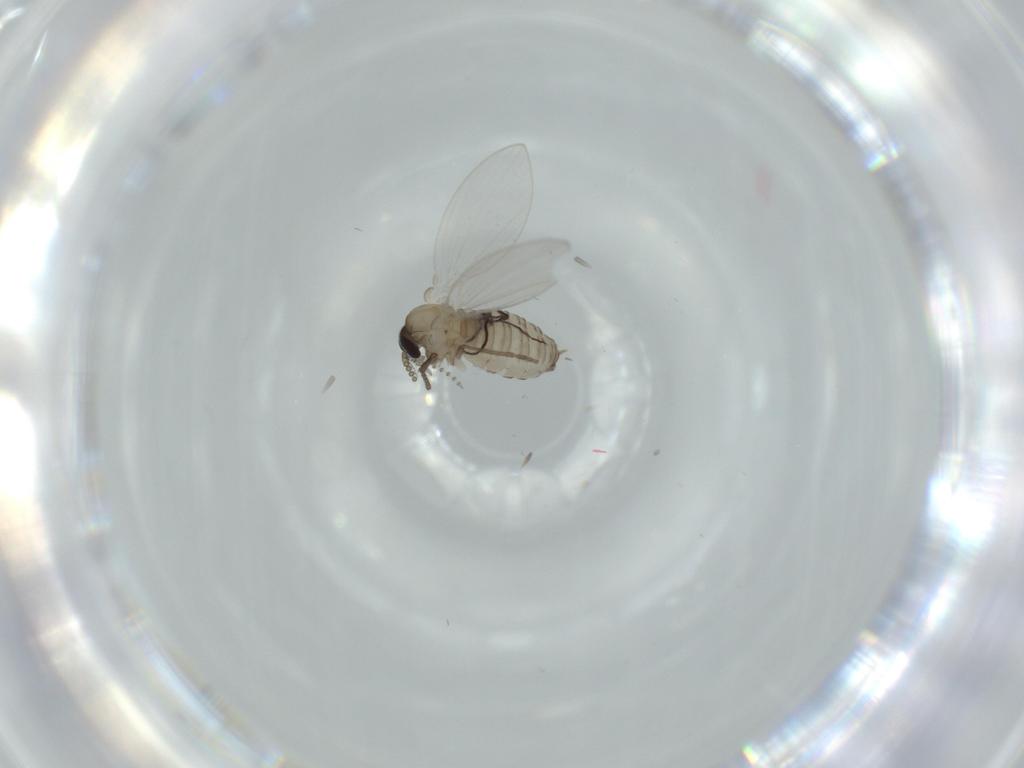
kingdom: Animalia
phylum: Arthropoda
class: Insecta
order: Diptera
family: Psychodidae
